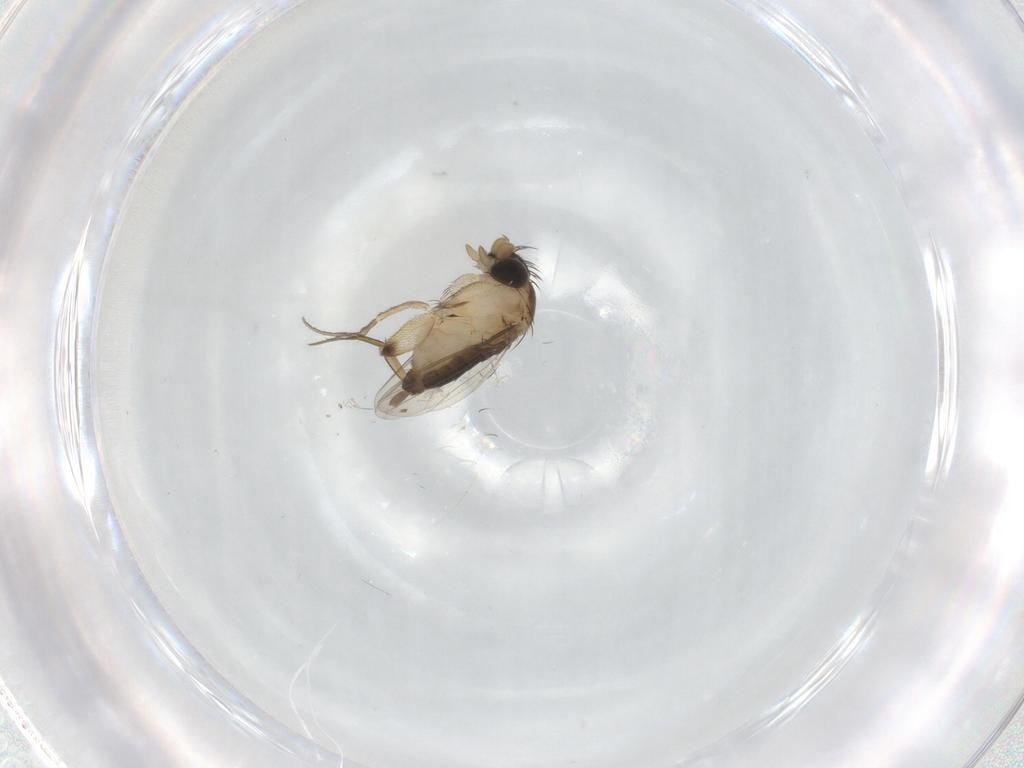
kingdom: Animalia
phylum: Arthropoda
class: Insecta
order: Diptera
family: Phoridae
